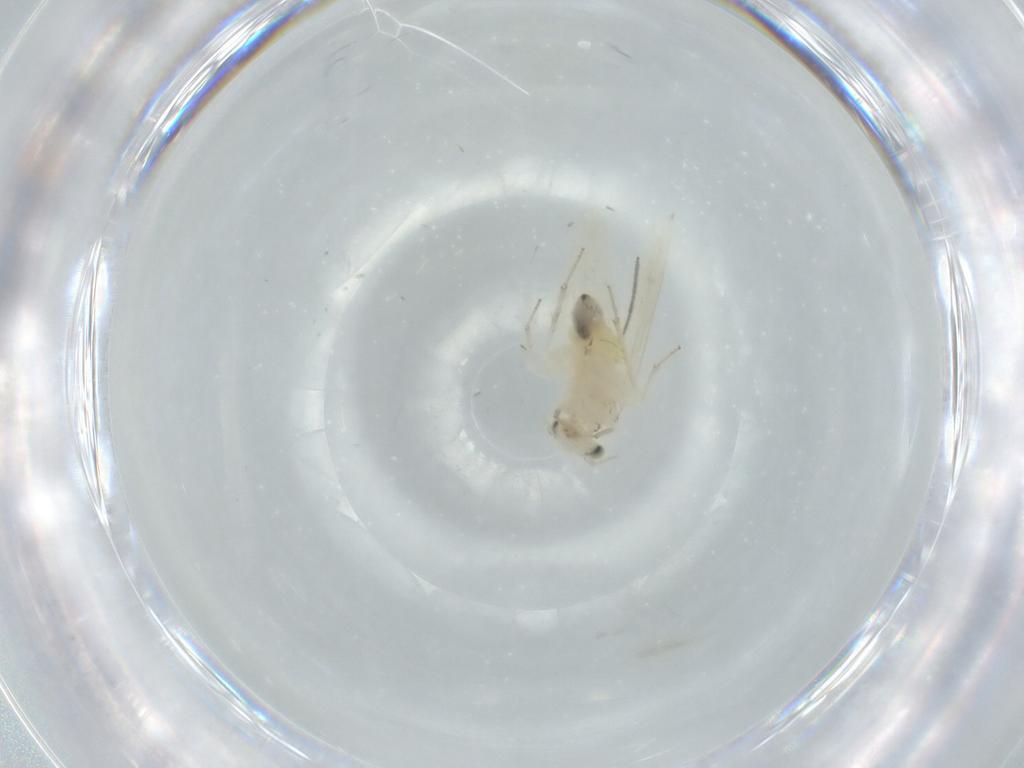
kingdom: Animalia
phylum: Arthropoda
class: Insecta
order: Psocodea
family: Lepidopsocidae
